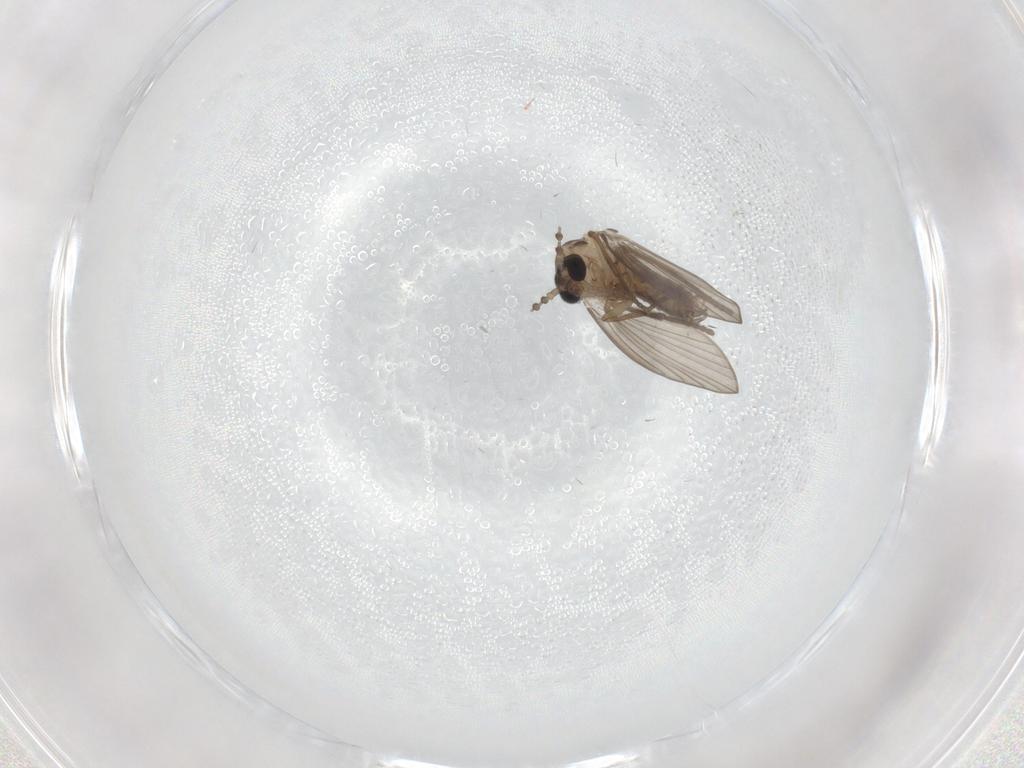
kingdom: Animalia
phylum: Arthropoda
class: Insecta
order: Diptera
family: Psychodidae
